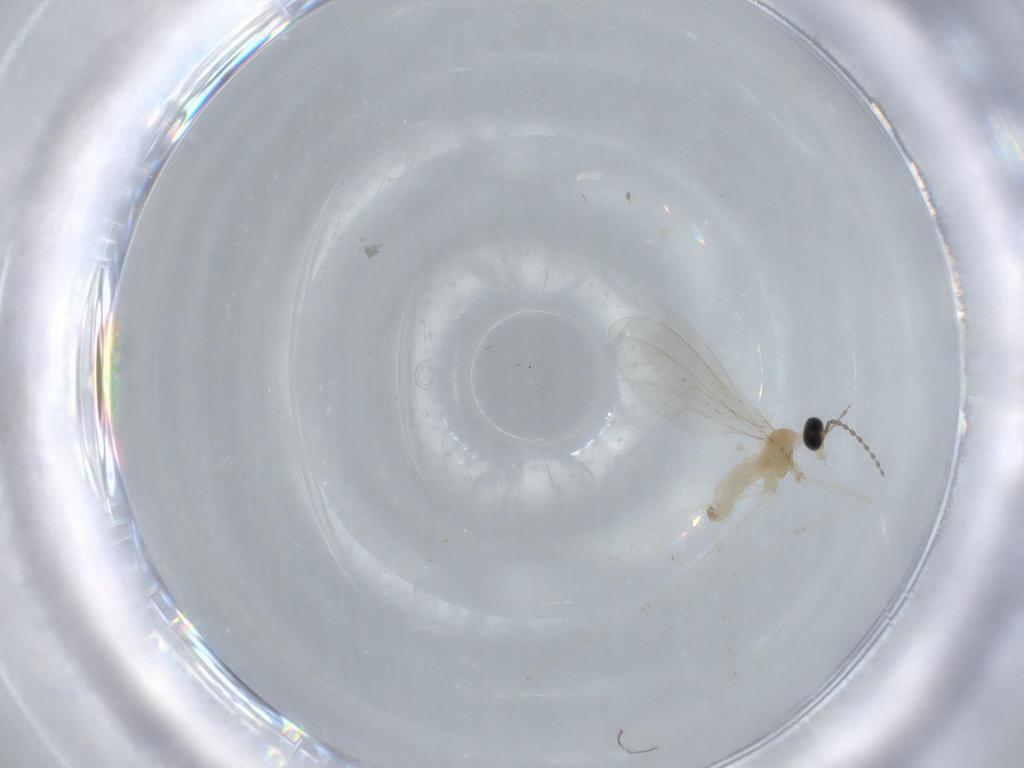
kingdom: Animalia
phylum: Arthropoda
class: Insecta
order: Diptera
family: Cecidomyiidae
